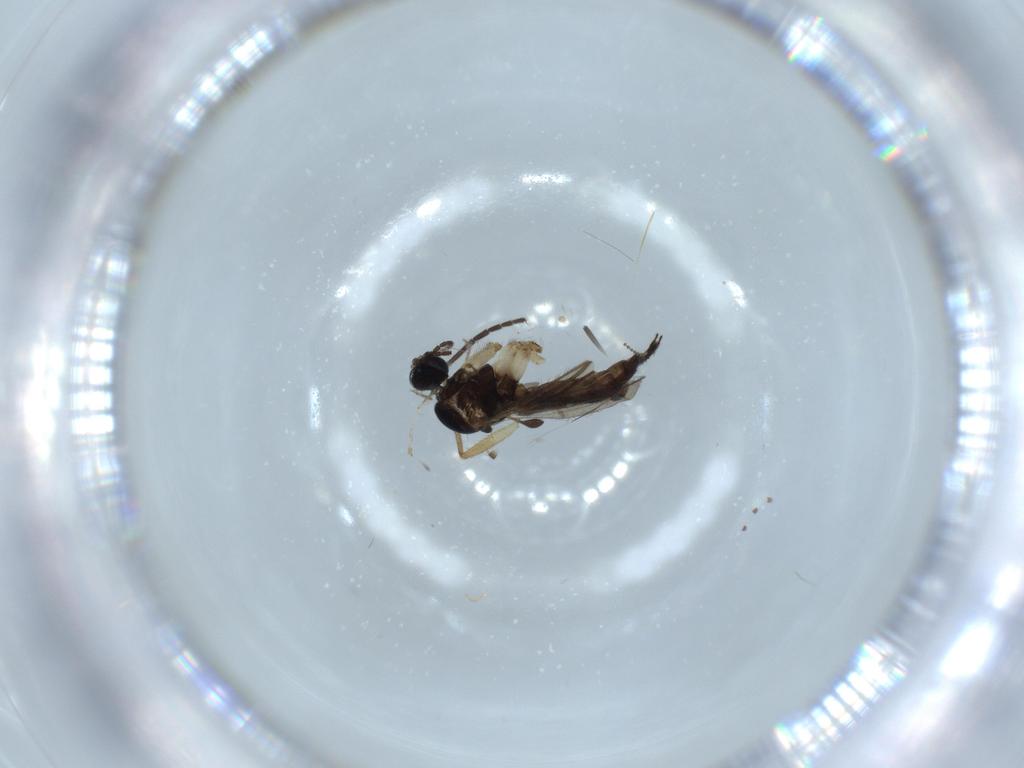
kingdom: Animalia
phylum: Arthropoda
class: Insecta
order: Diptera
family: Sciaridae
